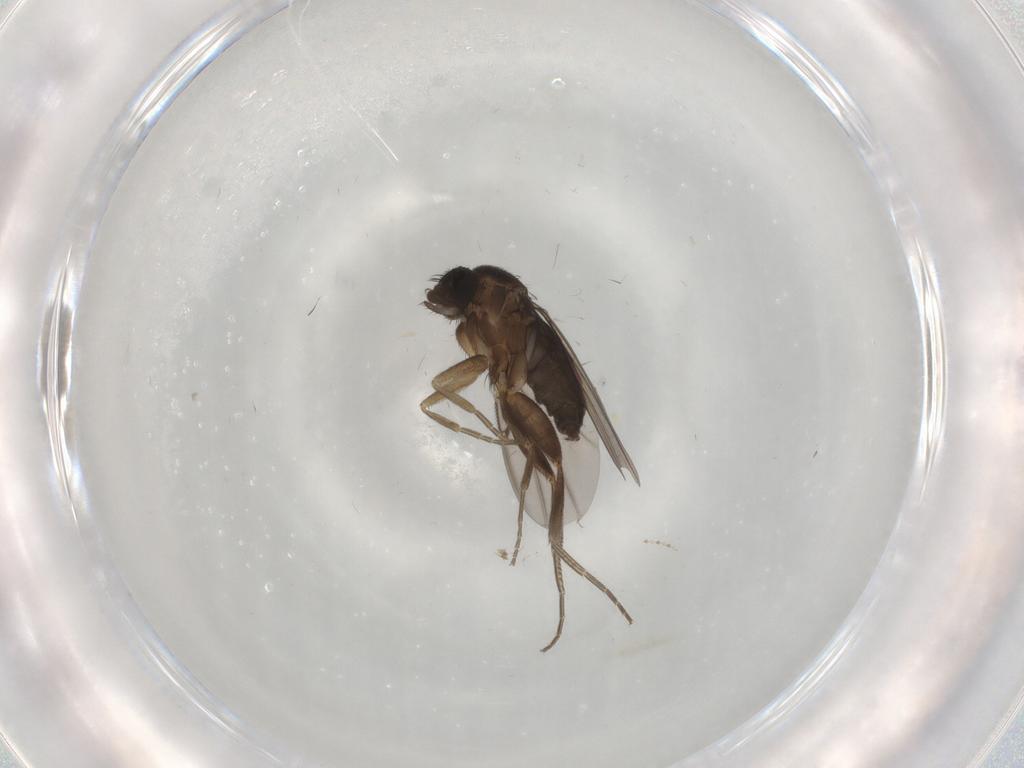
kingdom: Animalia
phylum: Arthropoda
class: Insecta
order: Diptera
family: Phoridae
